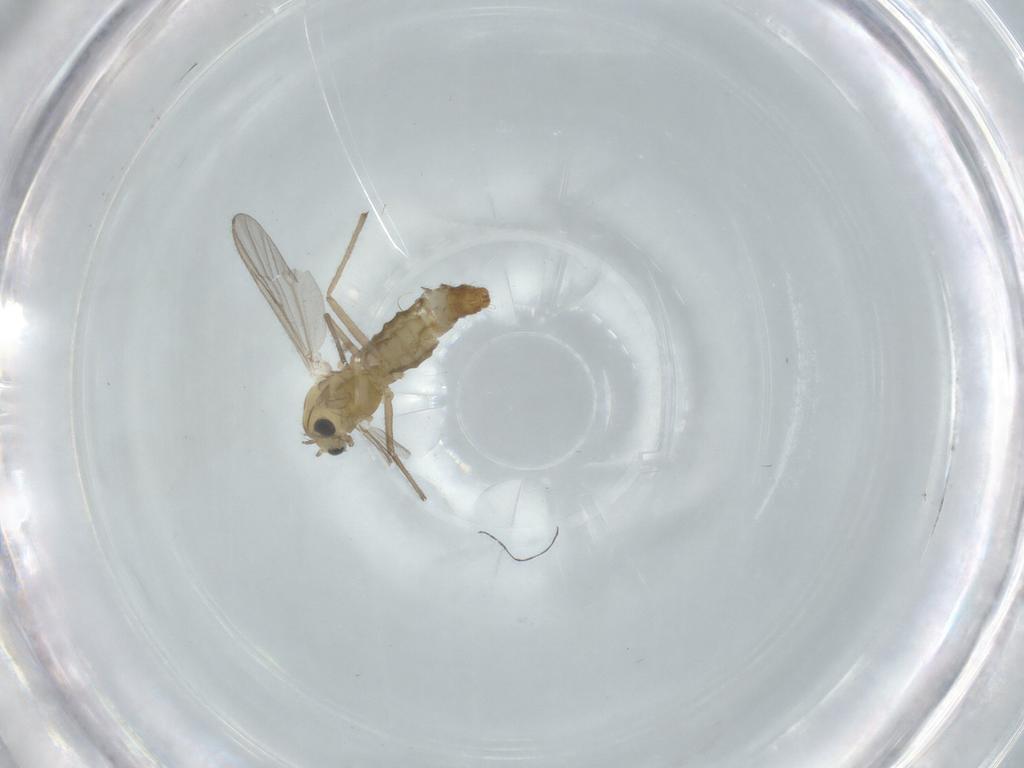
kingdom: Animalia
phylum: Arthropoda
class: Insecta
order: Diptera
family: Chironomidae
